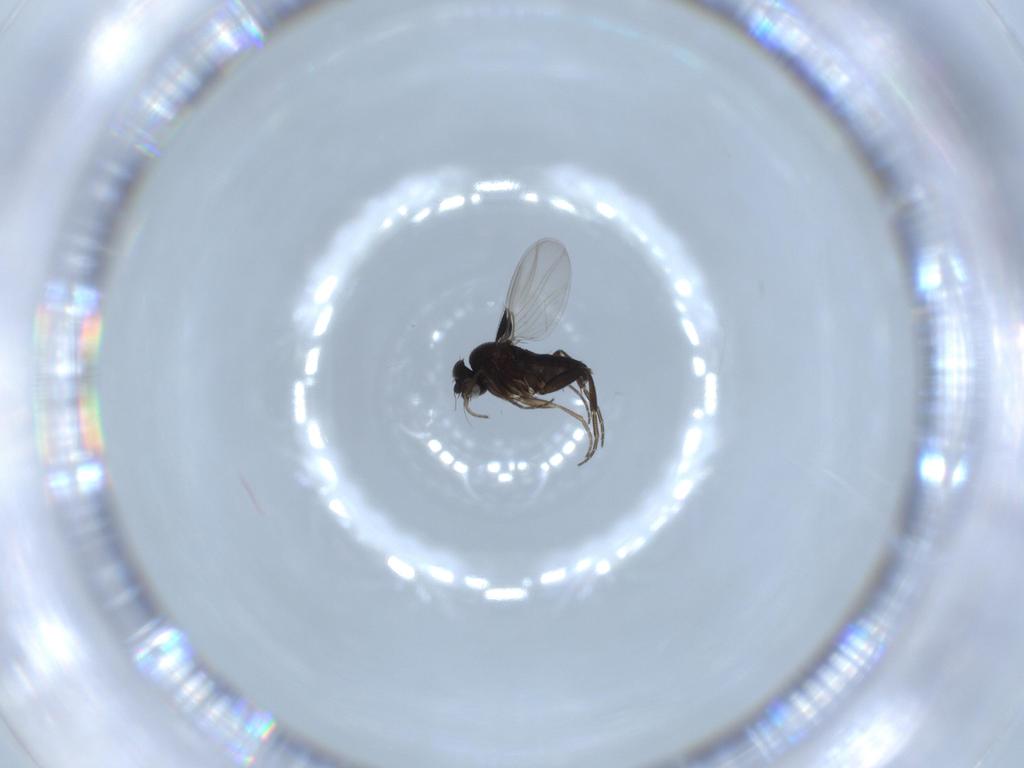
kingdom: Animalia
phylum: Arthropoda
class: Insecta
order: Diptera
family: Phoridae
